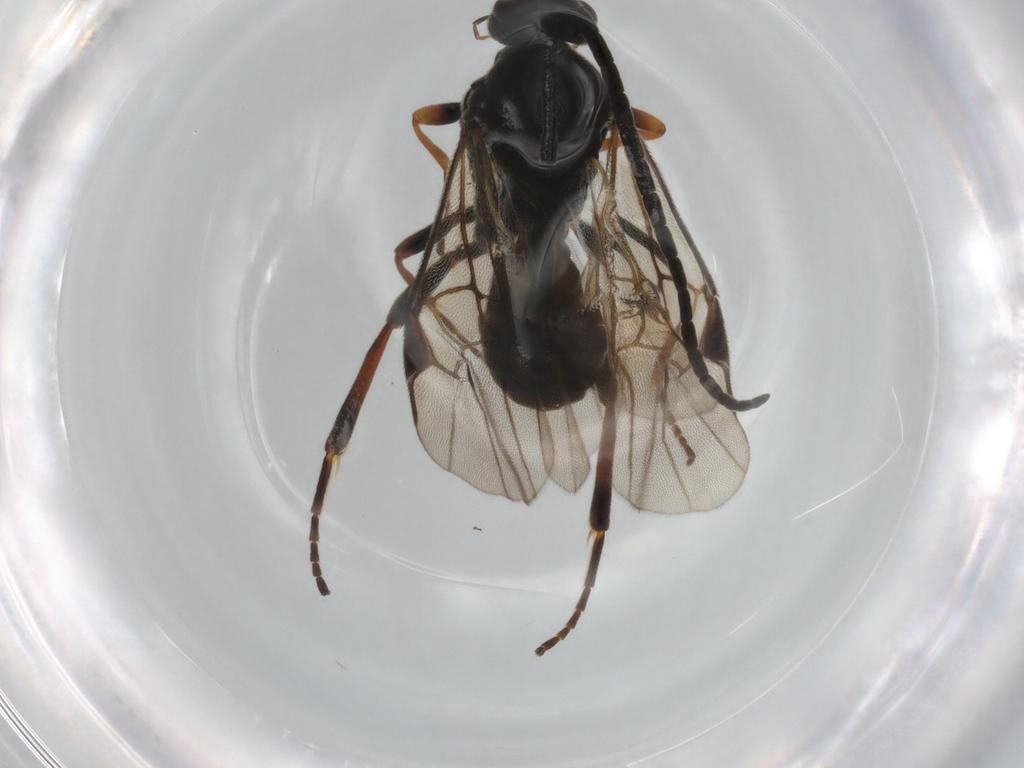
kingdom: Animalia
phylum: Arthropoda
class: Insecta
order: Hymenoptera
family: Braconidae
